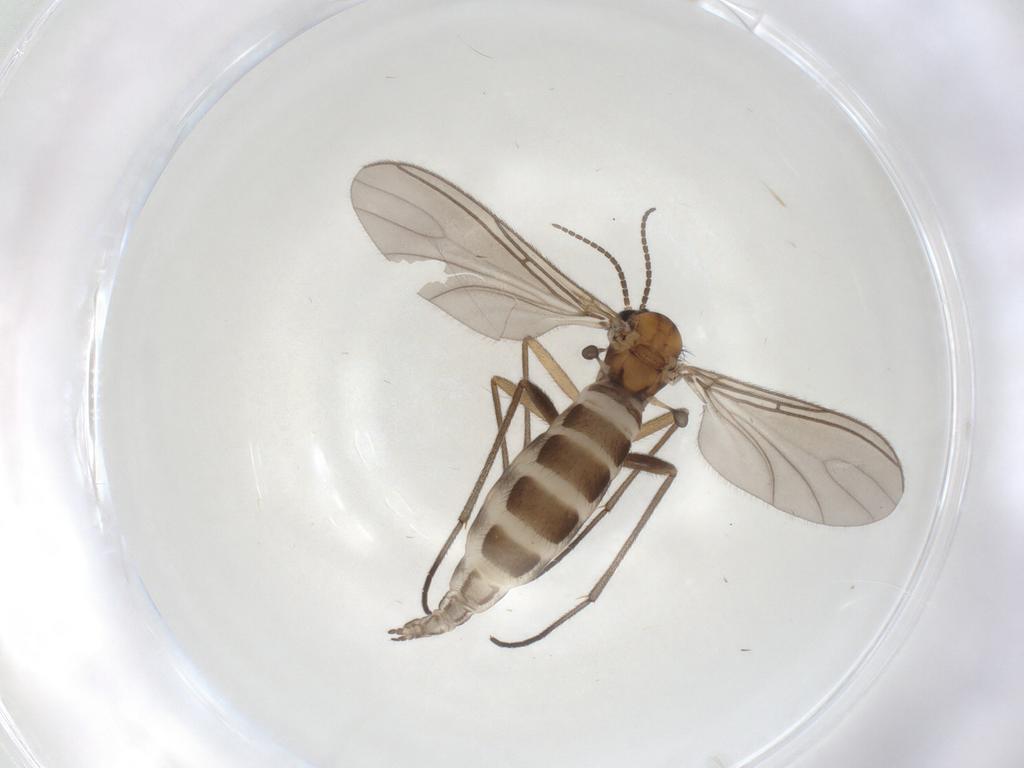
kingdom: Animalia
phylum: Arthropoda
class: Insecta
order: Diptera
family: Sciaridae
